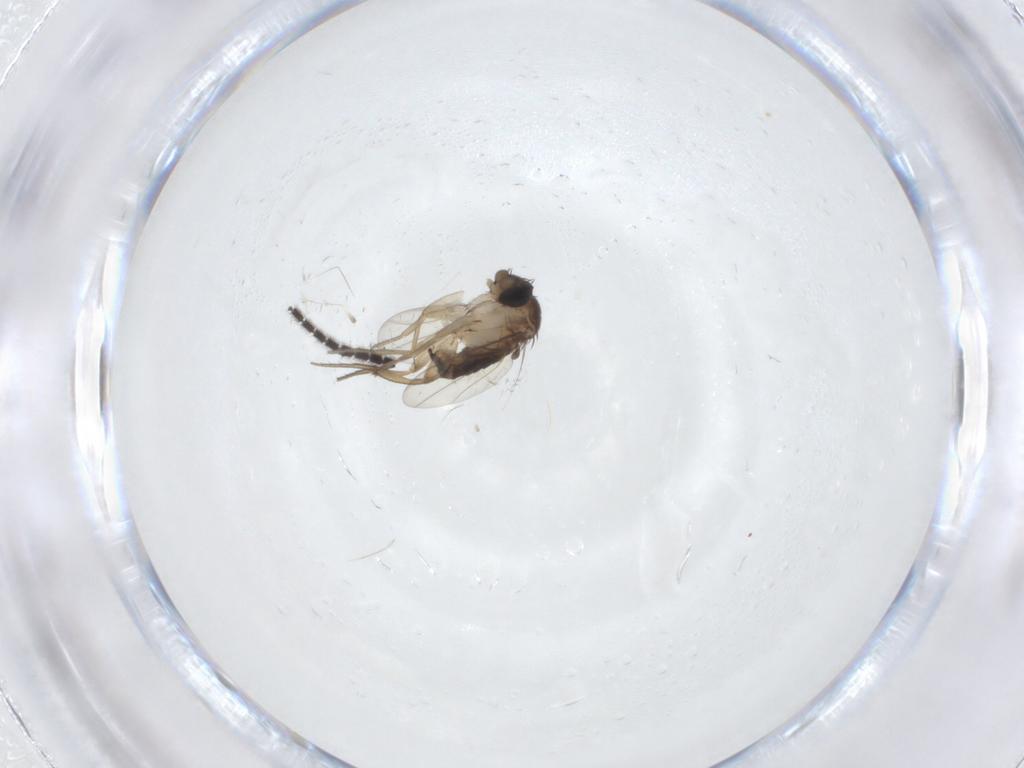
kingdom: Animalia
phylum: Arthropoda
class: Insecta
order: Diptera
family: Sciaridae
